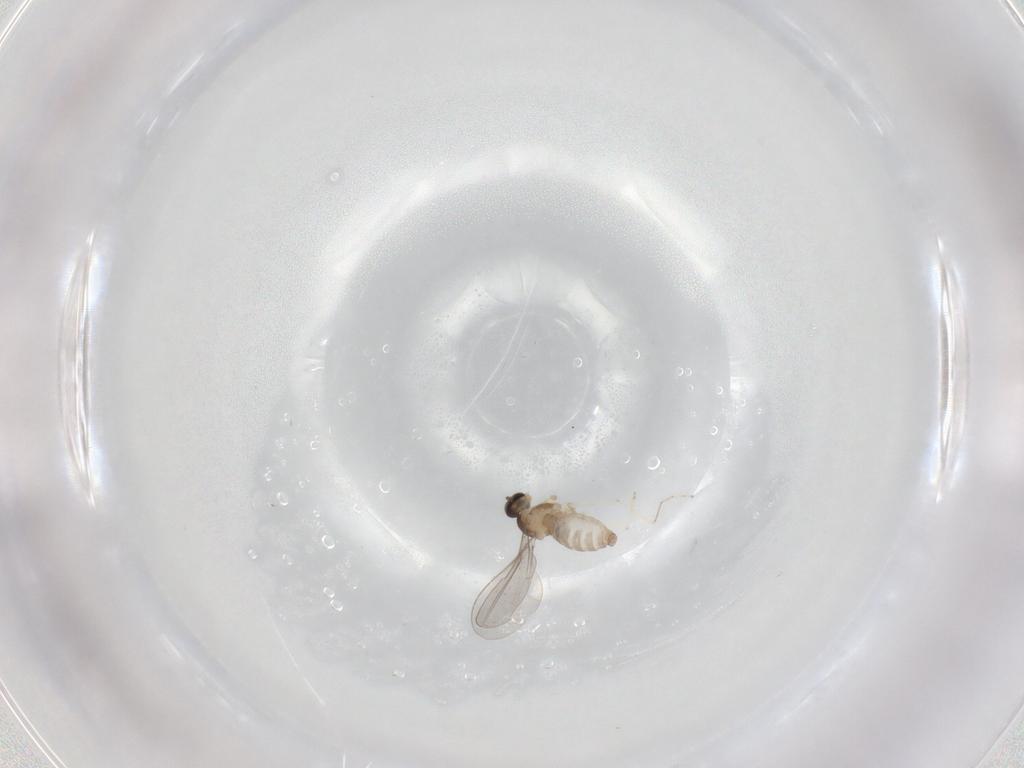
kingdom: Animalia
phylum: Arthropoda
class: Insecta
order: Diptera
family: Cecidomyiidae
